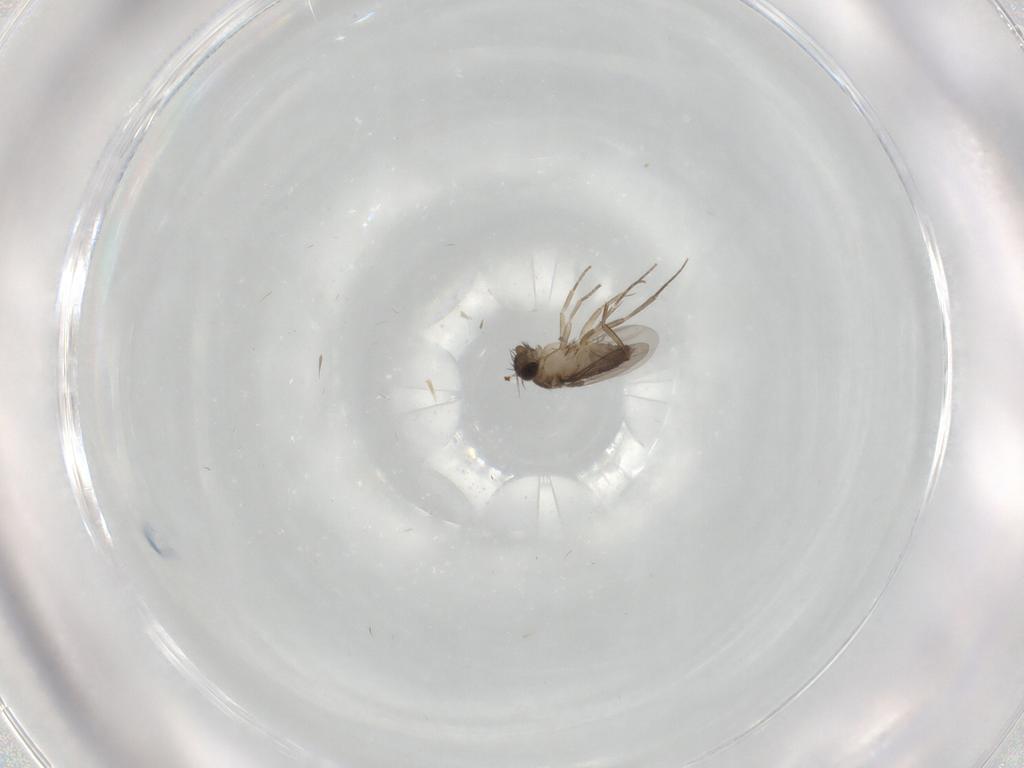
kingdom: Animalia
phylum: Arthropoda
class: Insecta
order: Diptera
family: Phoridae
